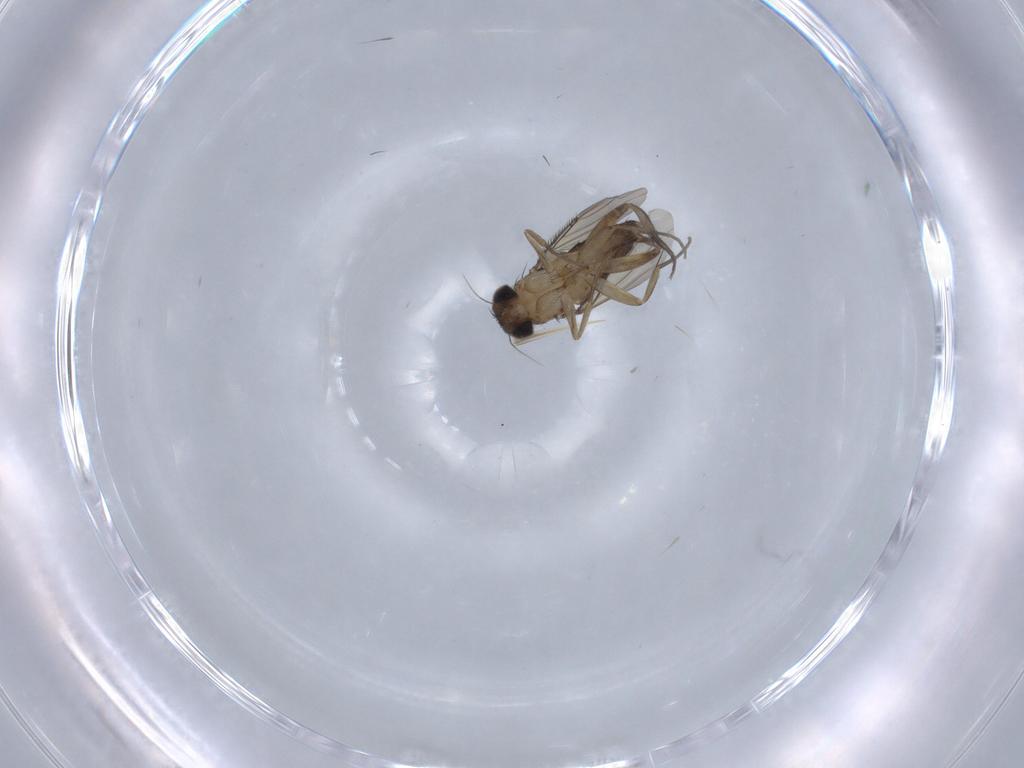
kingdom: Animalia
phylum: Arthropoda
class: Insecta
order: Diptera
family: Phoridae
